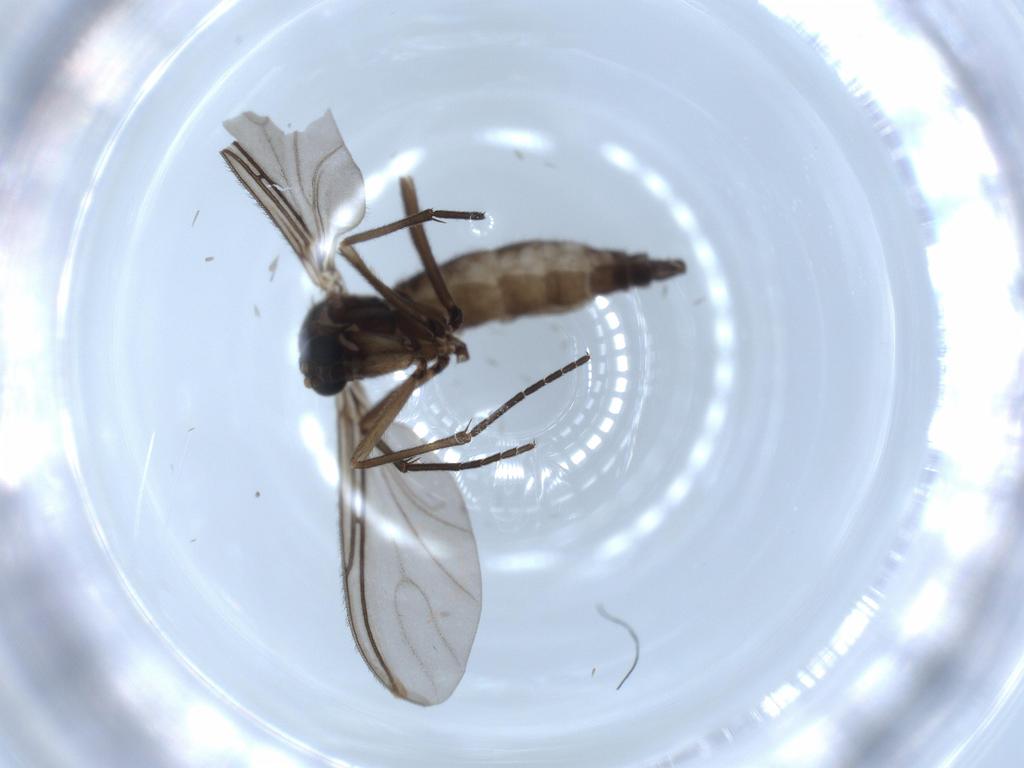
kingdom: Animalia
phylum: Arthropoda
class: Insecta
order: Diptera
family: Sciaridae
